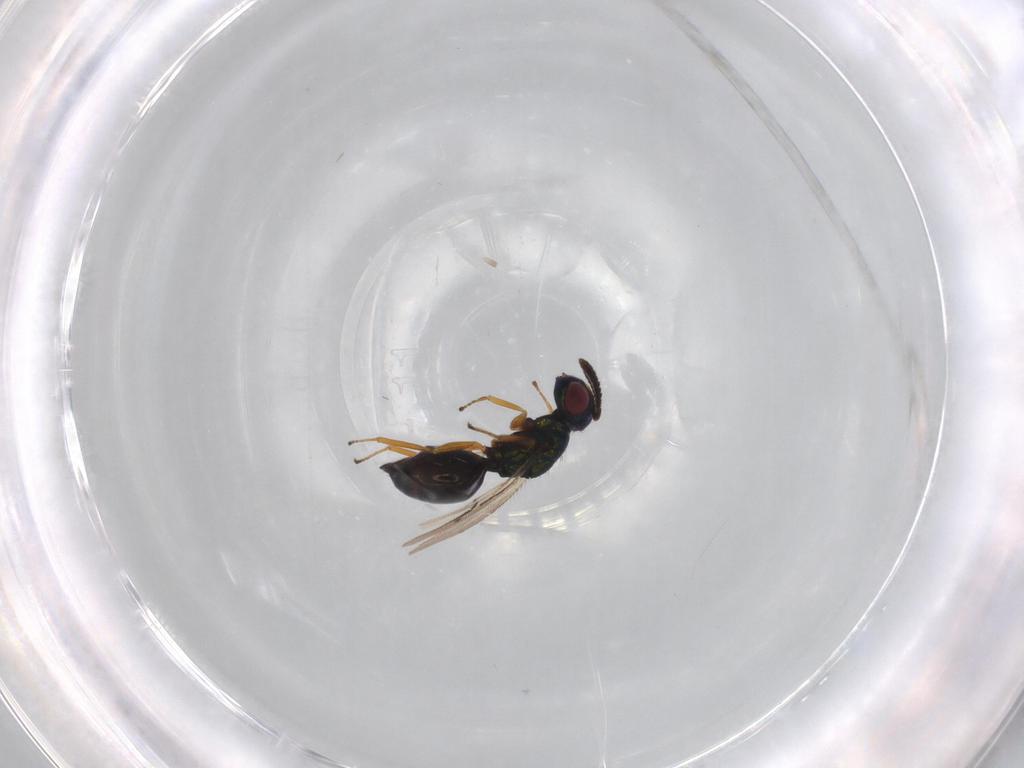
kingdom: Animalia
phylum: Arthropoda
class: Insecta
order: Hymenoptera
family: Pteromalidae
